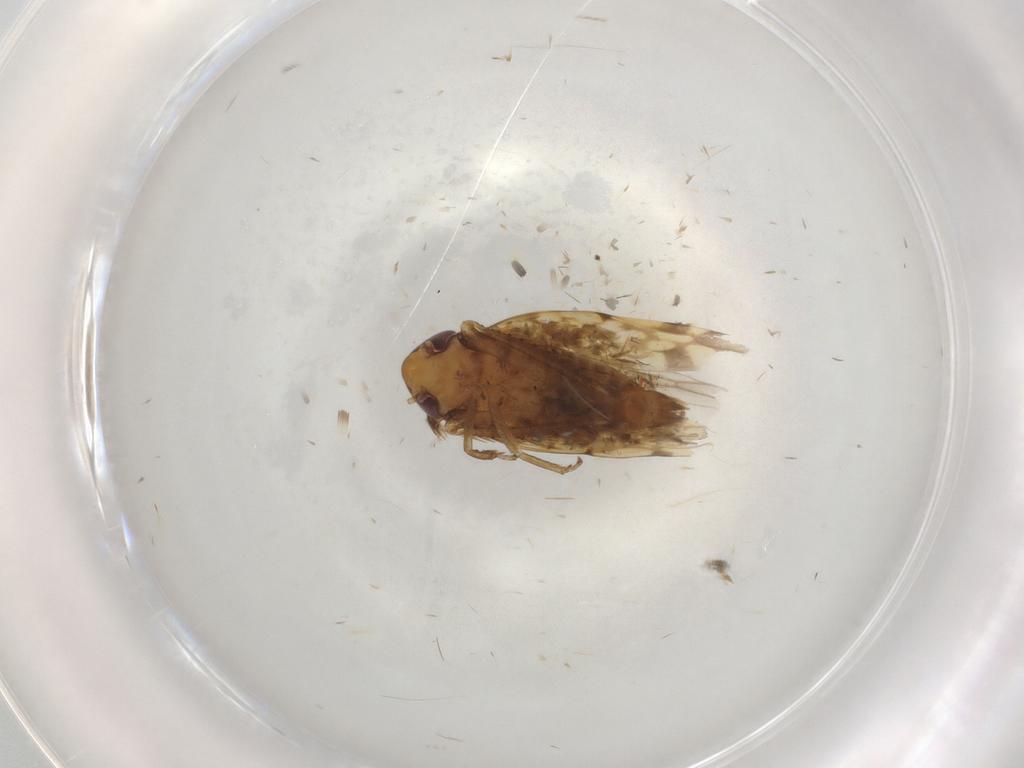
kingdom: Animalia
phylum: Arthropoda
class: Insecta
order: Hemiptera
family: Cicadellidae
